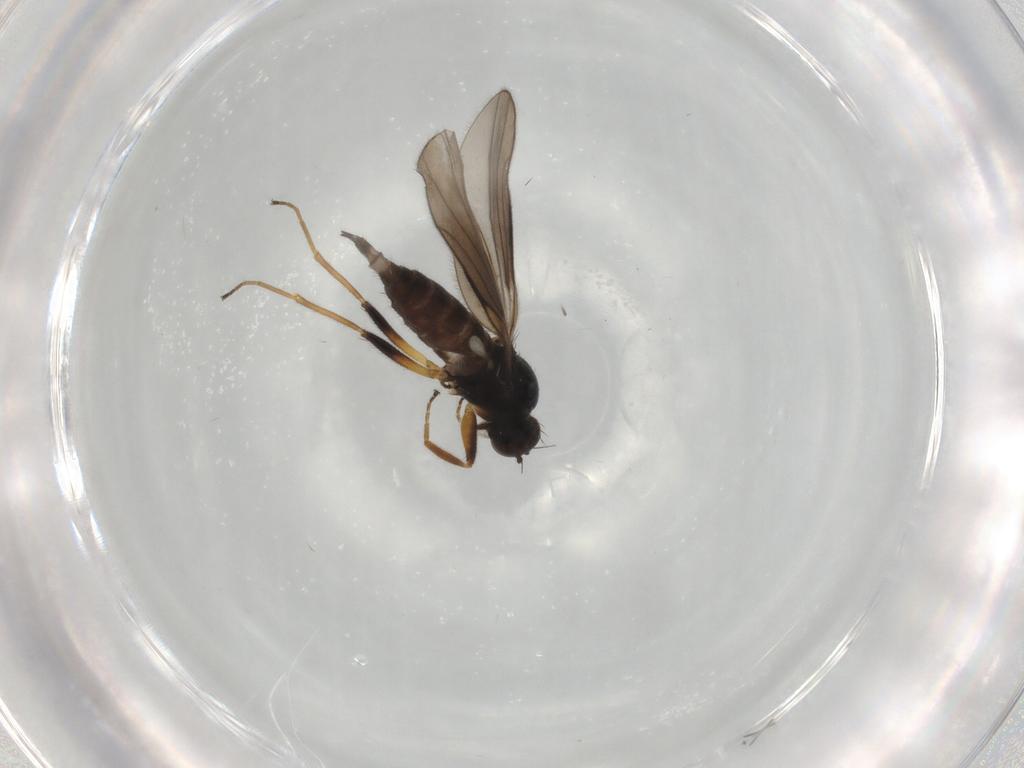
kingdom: Animalia
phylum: Arthropoda
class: Insecta
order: Diptera
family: Hybotidae
